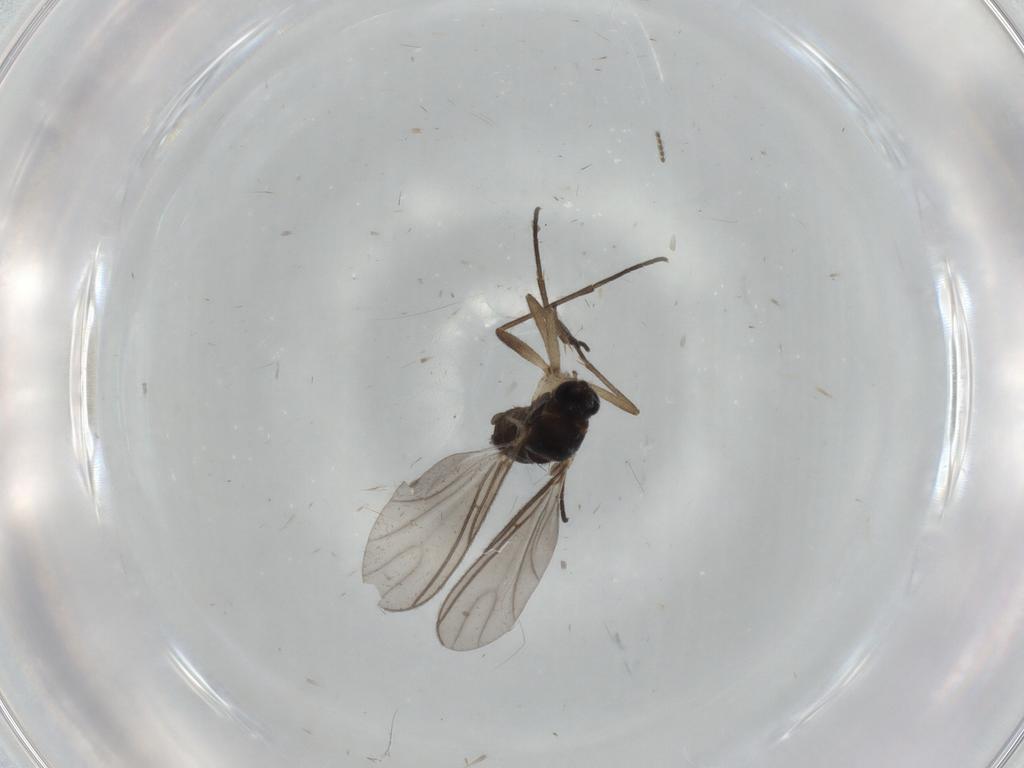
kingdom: Animalia
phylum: Arthropoda
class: Insecta
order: Diptera
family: Sciaridae
